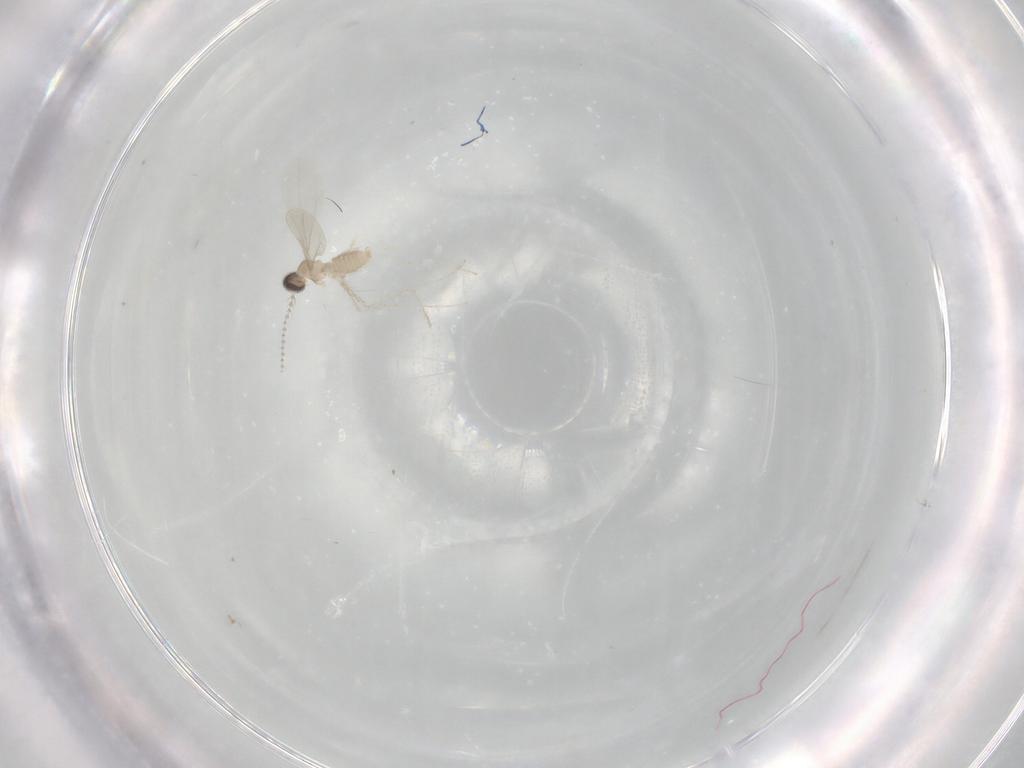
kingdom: Animalia
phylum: Arthropoda
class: Insecta
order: Diptera
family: Cecidomyiidae
